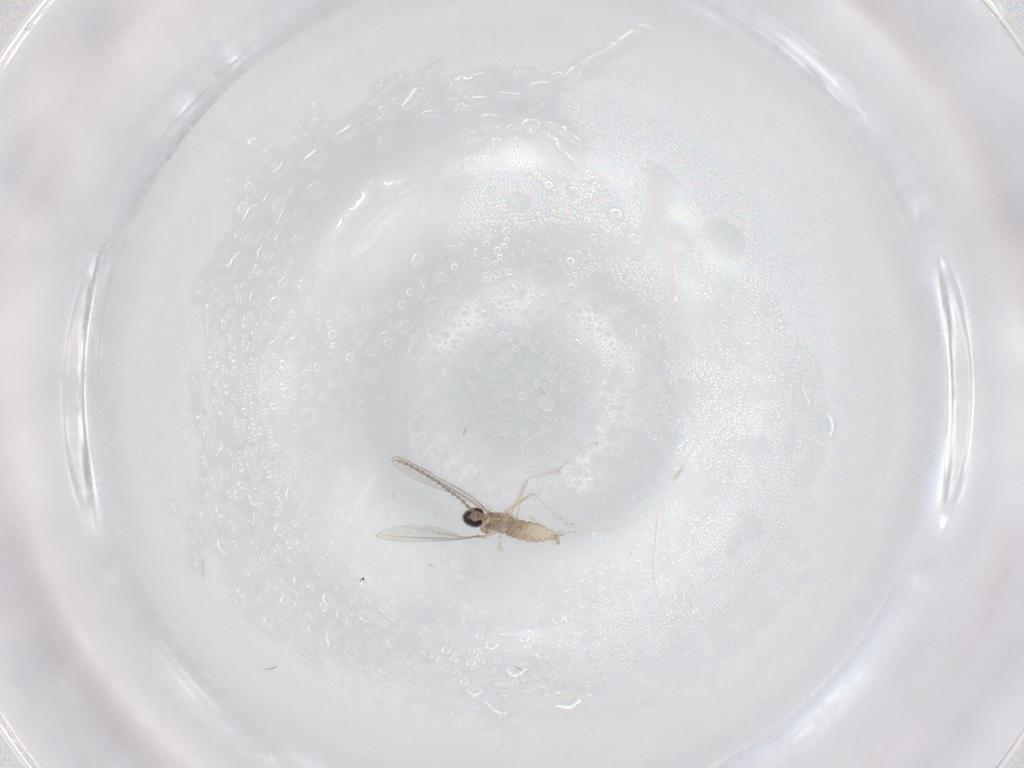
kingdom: Animalia
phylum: Arthropoda
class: Insecta
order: Diptera
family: Cecidomyiidae
